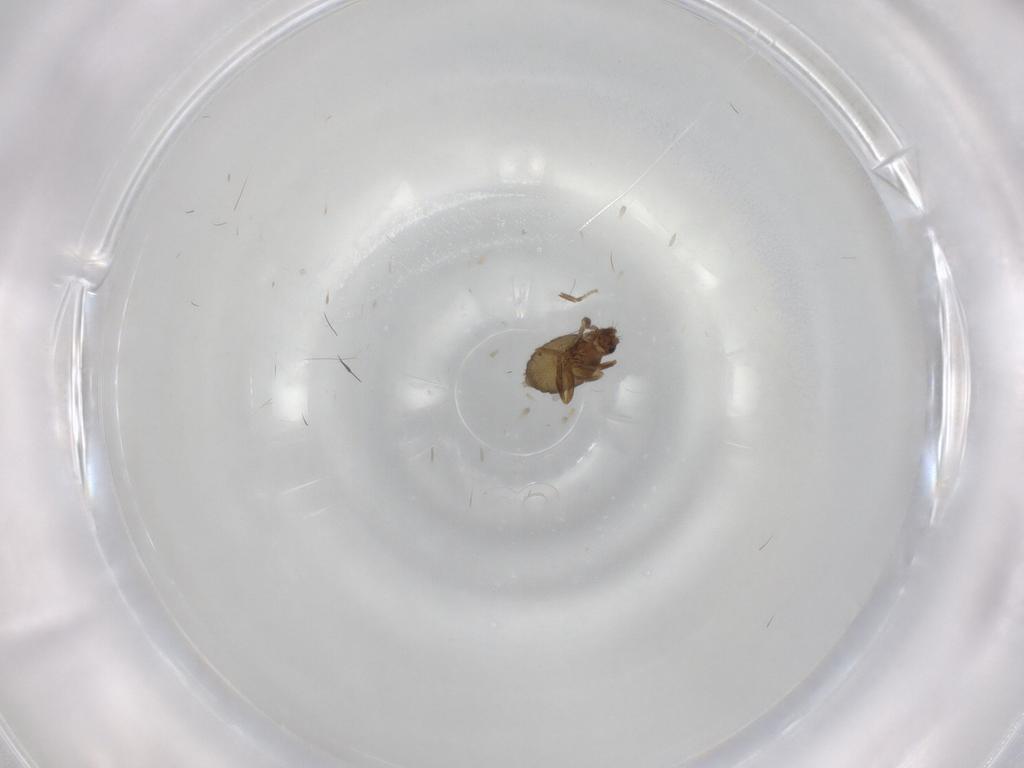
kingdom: Animalia
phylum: Arthropoda
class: Insecta
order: Diptera
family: Phoridae
